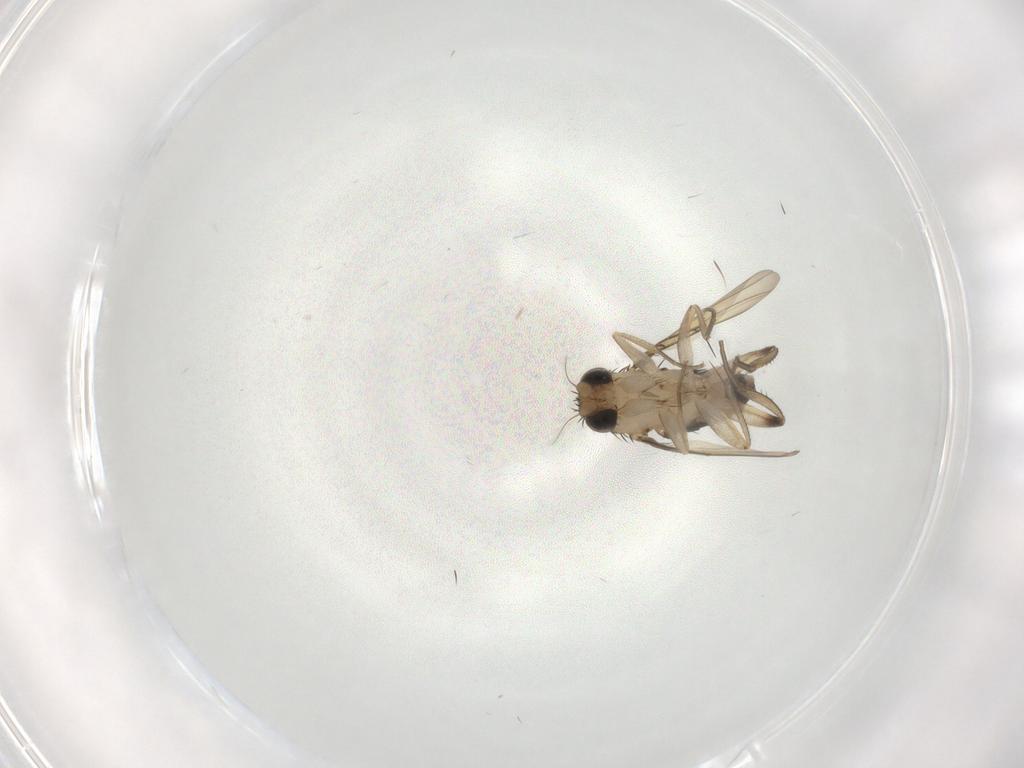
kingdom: Animalia
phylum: Arthropoda
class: Insecta
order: Diptera
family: Phoridae
